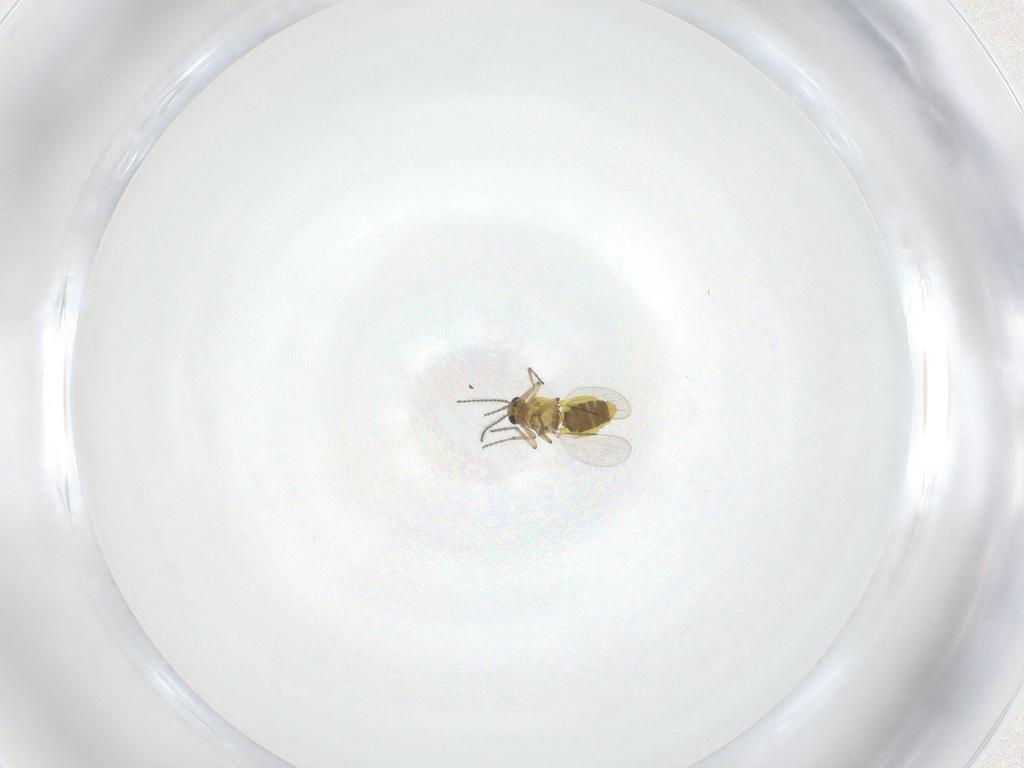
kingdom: Animalia
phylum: Arthropoda
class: Insecta
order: Diptera
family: Ceratopogonidae
